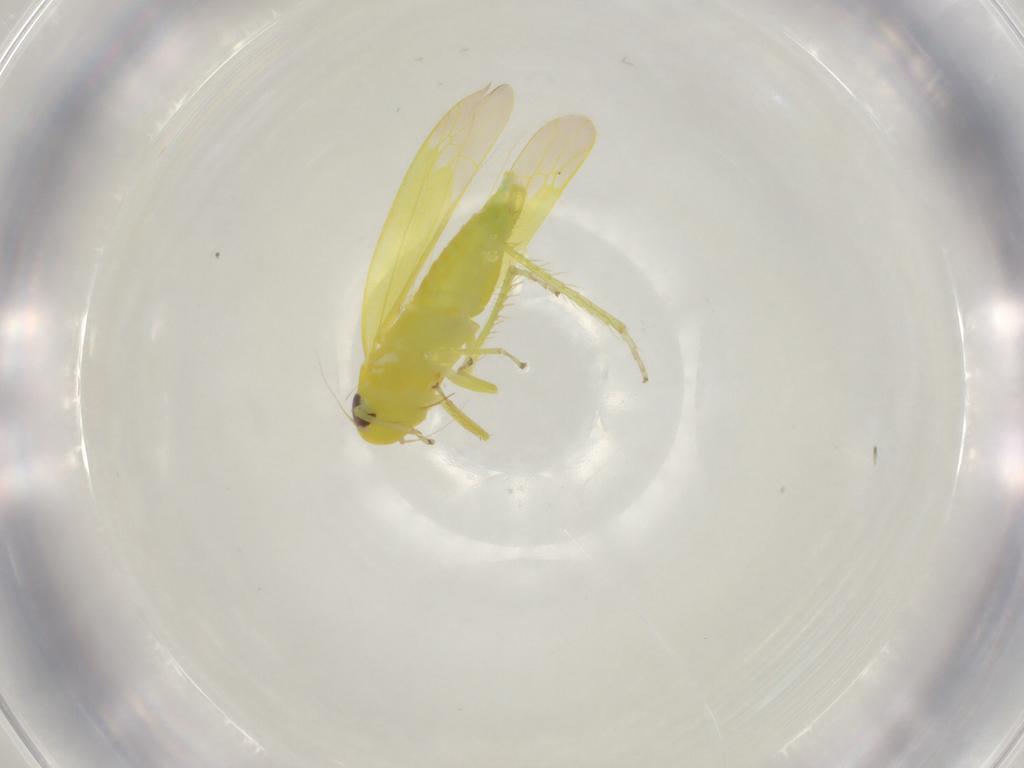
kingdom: Animalia
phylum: Arthropoda
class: Insecta
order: Hemiptera
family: Cicadellidae
